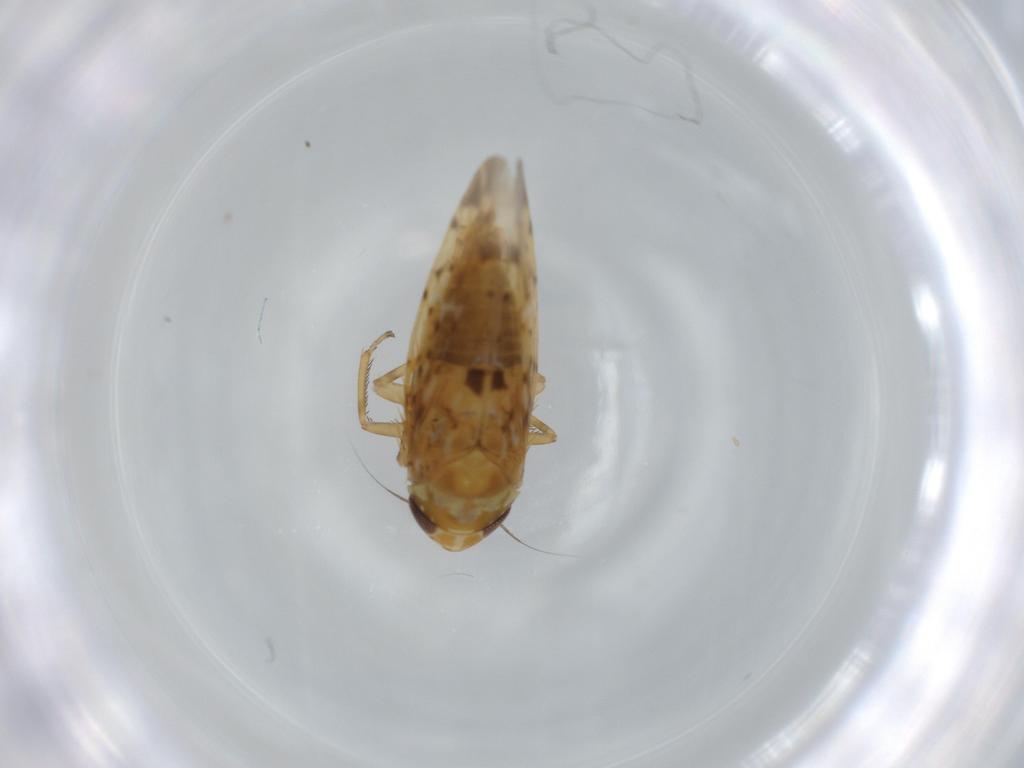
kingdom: Animalia
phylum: Arthropoda
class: Insecta
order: Hemiptera
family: Cicadellidae
